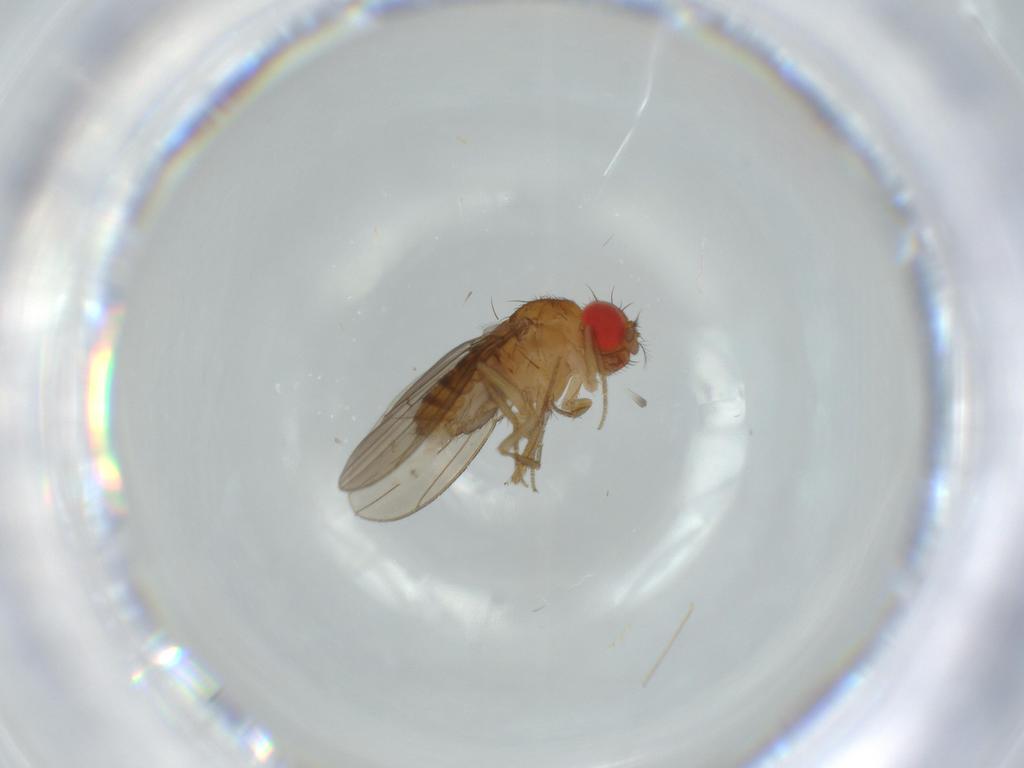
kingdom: Animalia
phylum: Arthropoda
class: Insecta
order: Diptera
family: Drosophilidae
